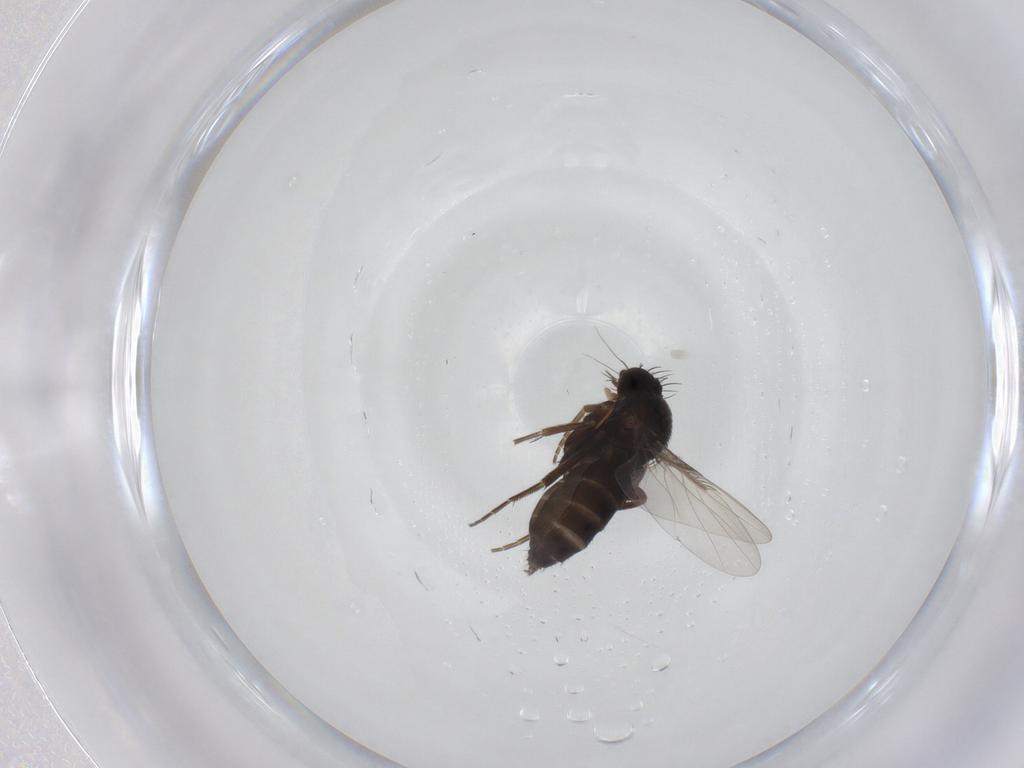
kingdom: Animalia
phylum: Arthropoda
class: Insecta
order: Diptera
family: Phoridae
